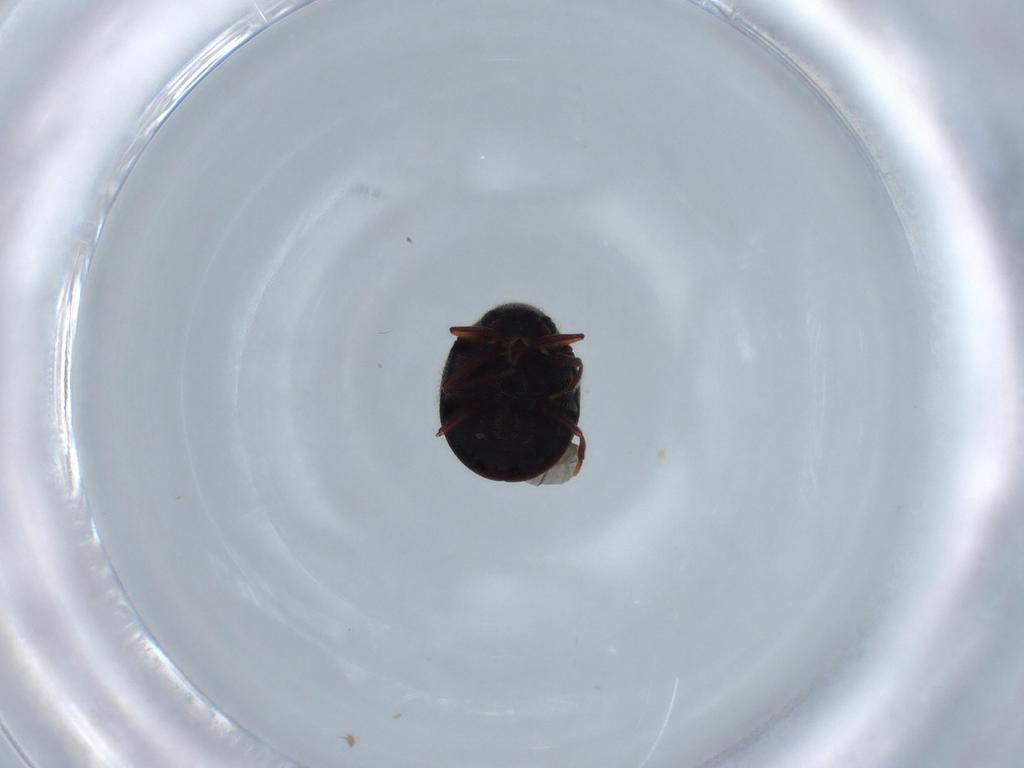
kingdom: Animalia
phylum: Arthropoda
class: Insecta
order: Coleoptera
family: Ptinidae
